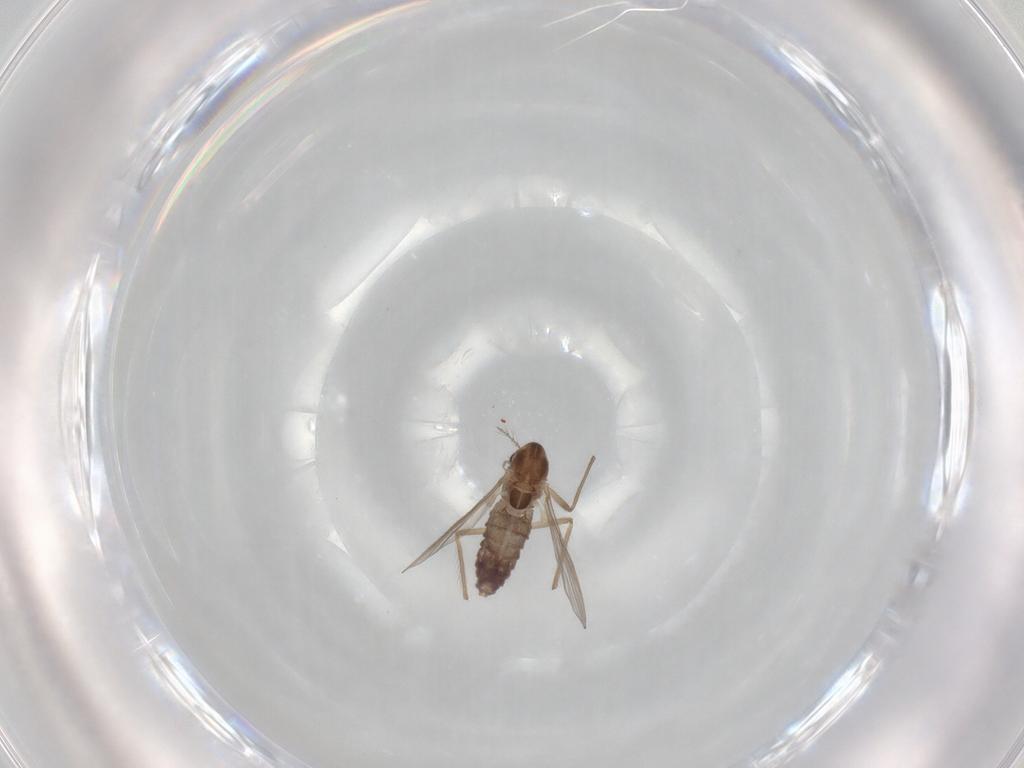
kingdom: Animalia
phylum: Arthropoda
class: Insecta
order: Diptera
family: Chironomidae
